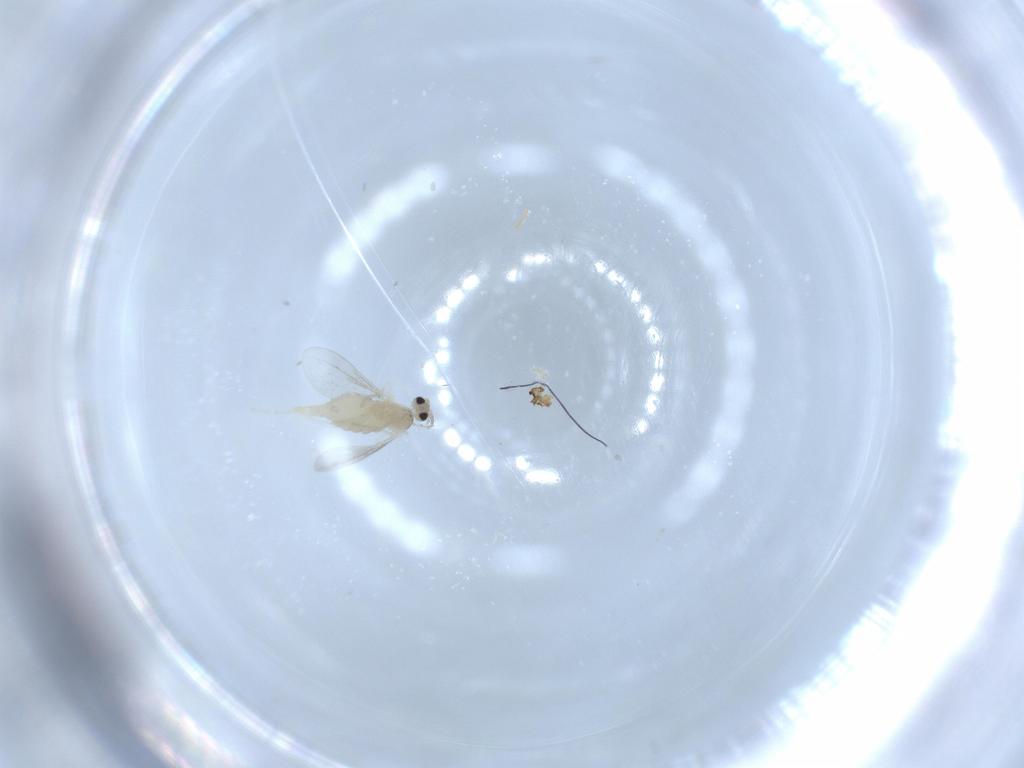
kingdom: Animalia
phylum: Arthropoda
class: Insecta
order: Diptera
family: Cecidomyiidae
